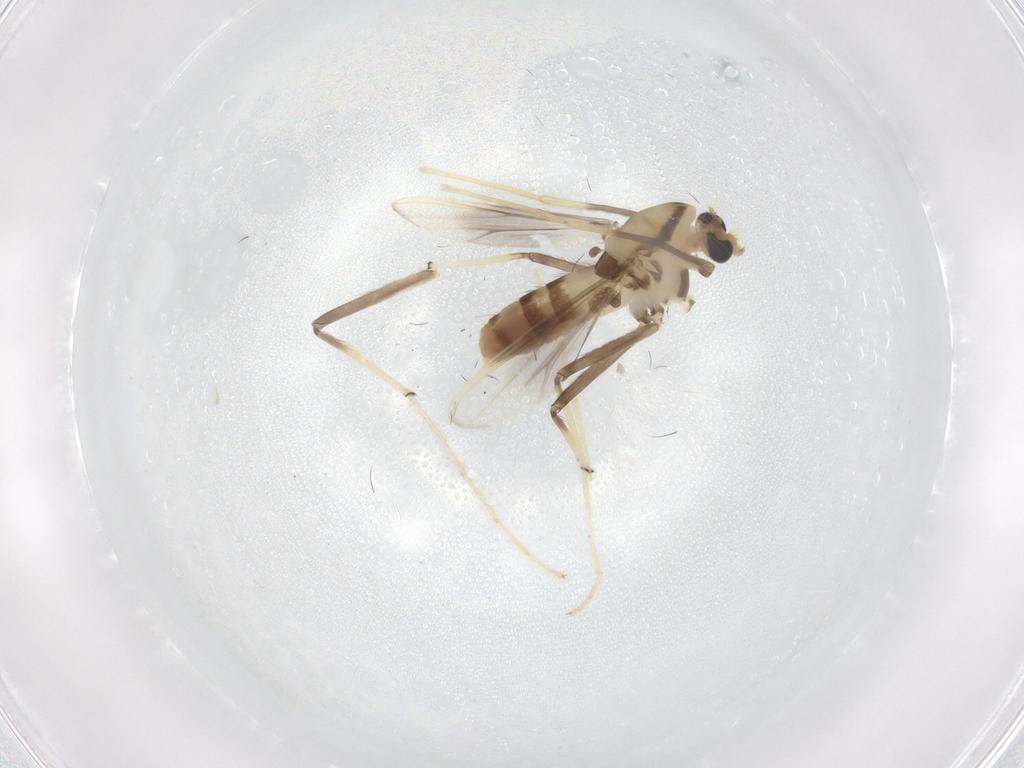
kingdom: Animalia
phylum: Arthropoda
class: Insecta
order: Diptera
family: Chironomidae
